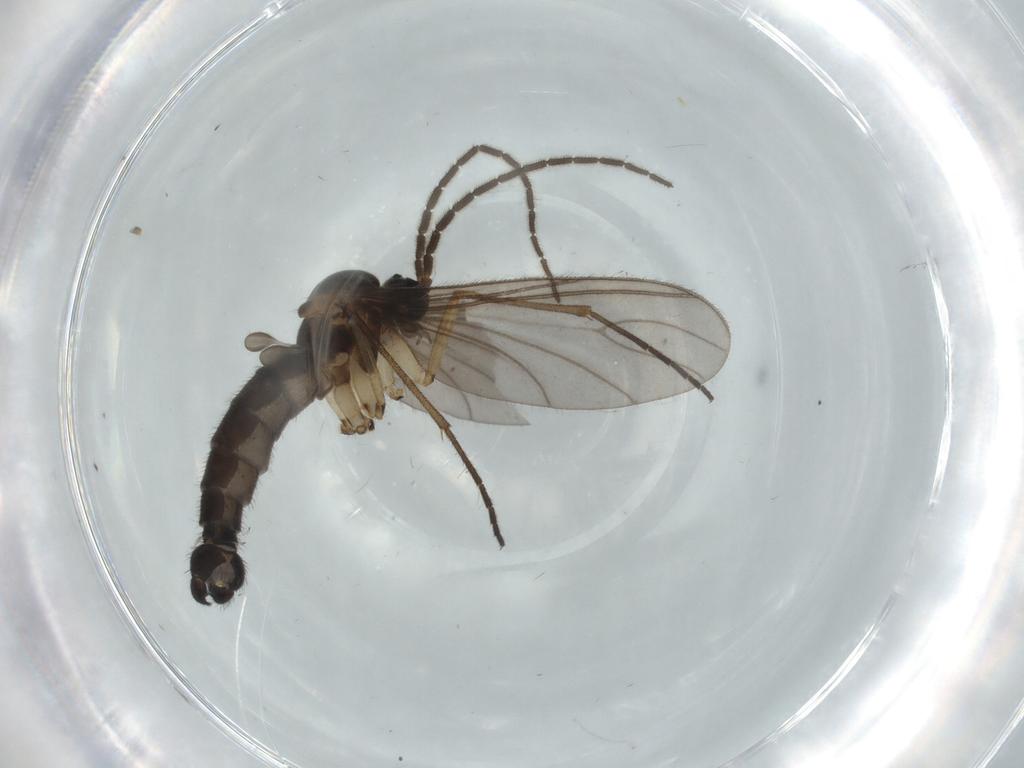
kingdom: Animalia
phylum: Arthropoda
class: Insecta
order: Diptera
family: Sciaridae
